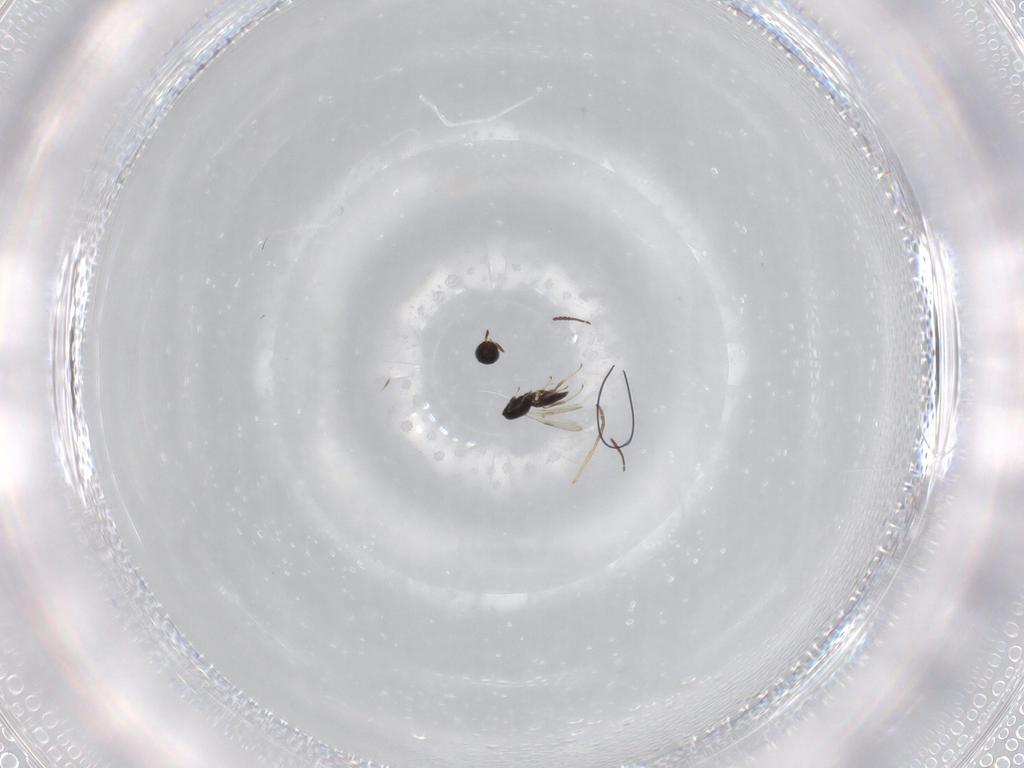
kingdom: Animalia
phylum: Arthropoda
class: Insecta
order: Hymenoptera
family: Scelionidae
